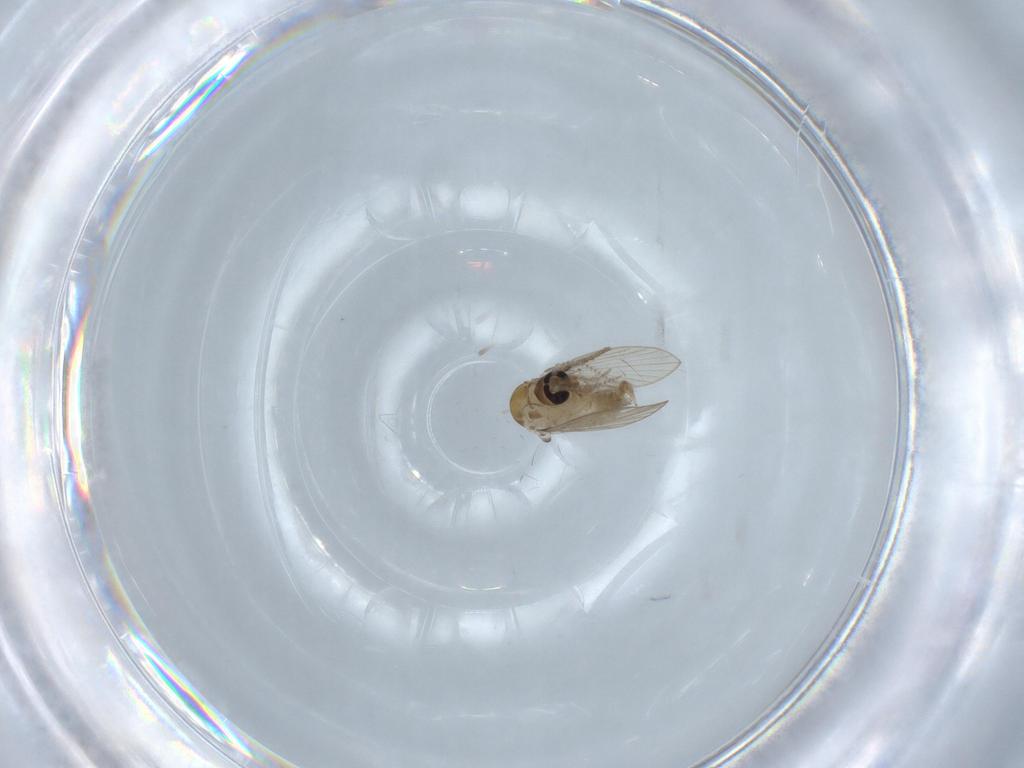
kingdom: Animalia
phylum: Arthropoda
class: Insecta
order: Diptera
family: Psychodidae
